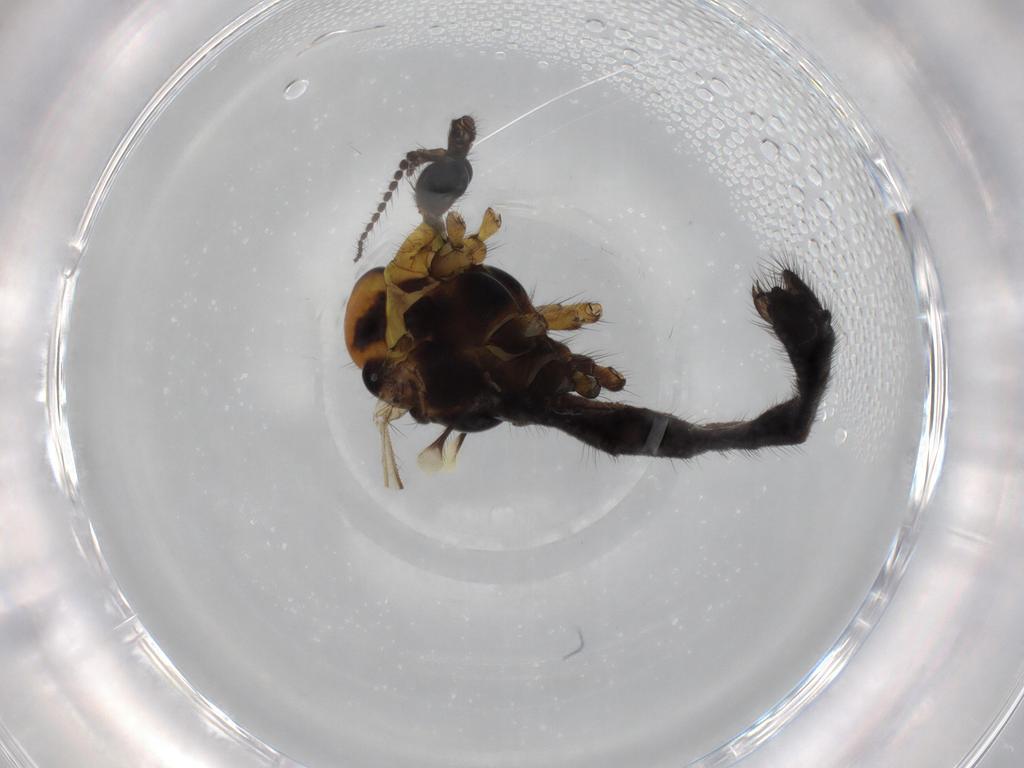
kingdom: Animalia
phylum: Arthropoda
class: Insecta
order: Diptera
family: Limoniidae
